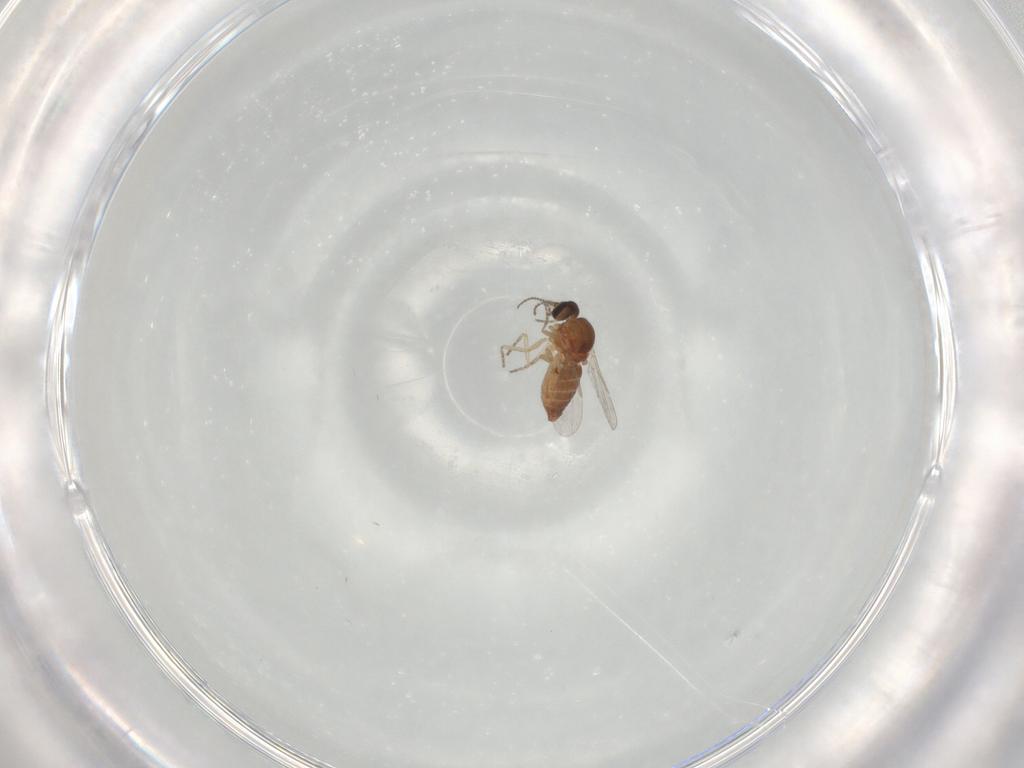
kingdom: Animalia
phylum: Arthropoda
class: Insecta
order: Diptera
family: Ceratopogonidae
